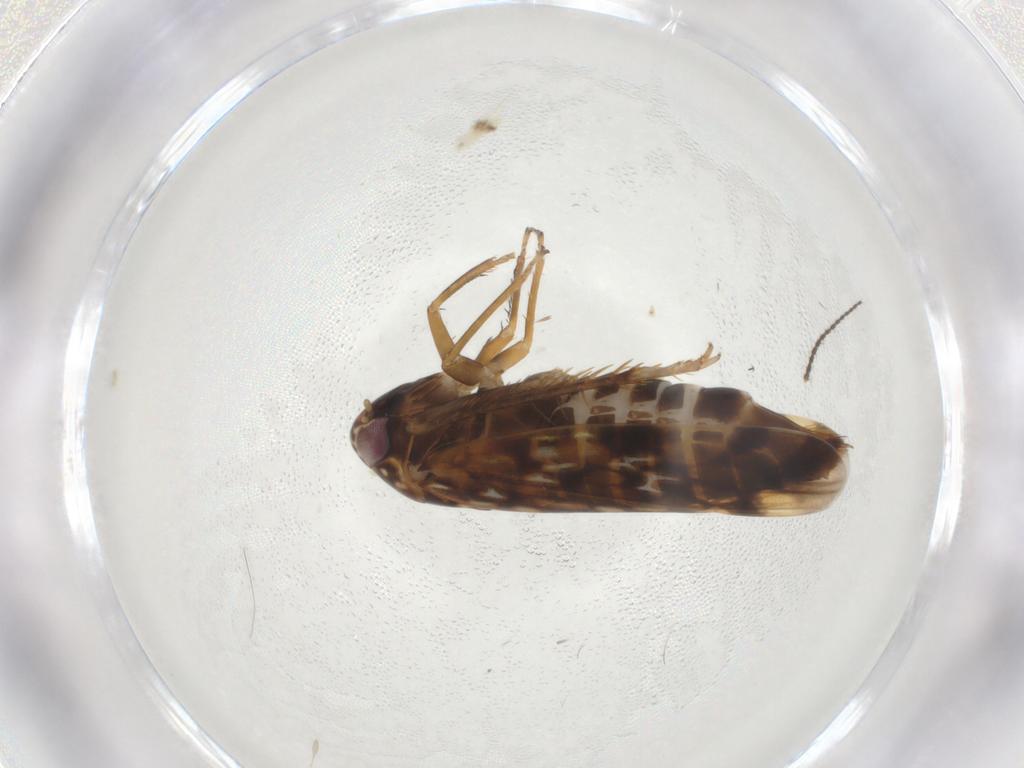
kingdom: Animalia
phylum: Arthropoda
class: Insecta
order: Hemiptera
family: Cicadellidae
